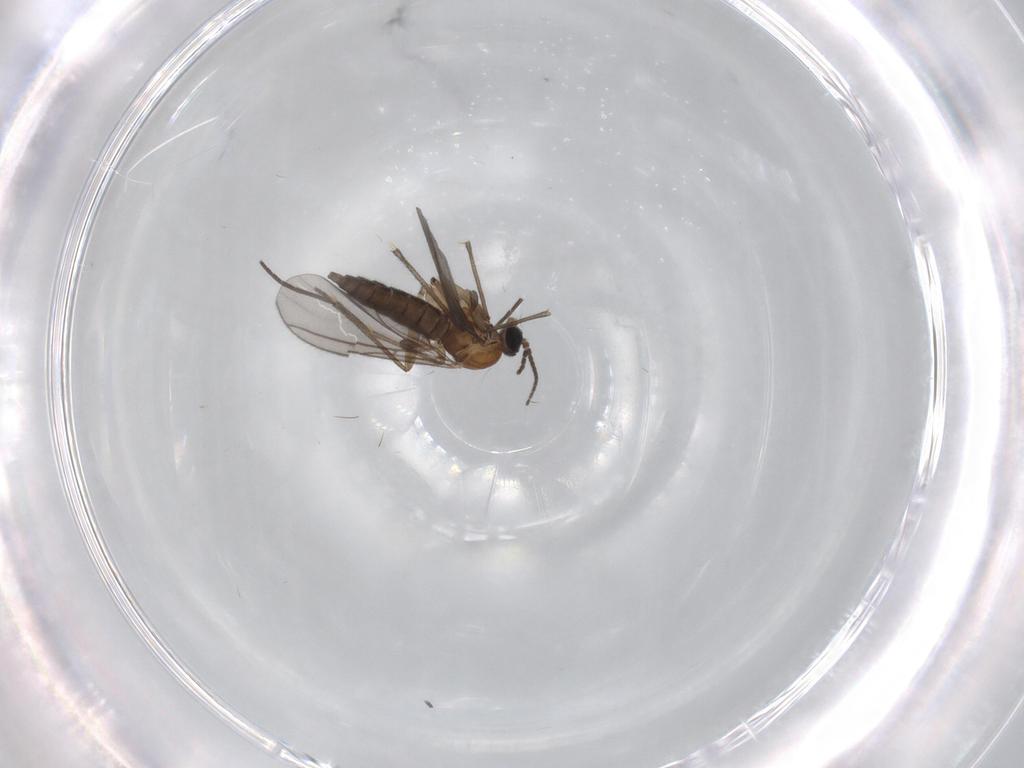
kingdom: Animalia
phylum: Arthropoda
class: Insecta
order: Diptera
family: Sciaridae
